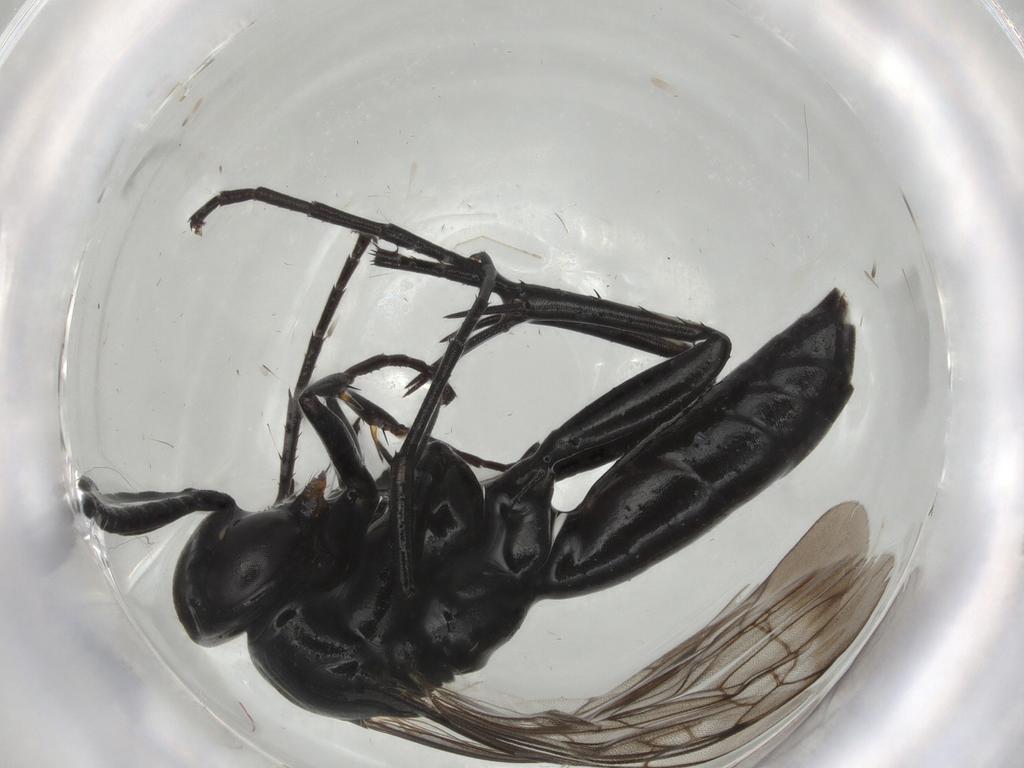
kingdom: Animalia
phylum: Arthropoda
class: Insecta
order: Hymenoptera
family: Pompilidae
